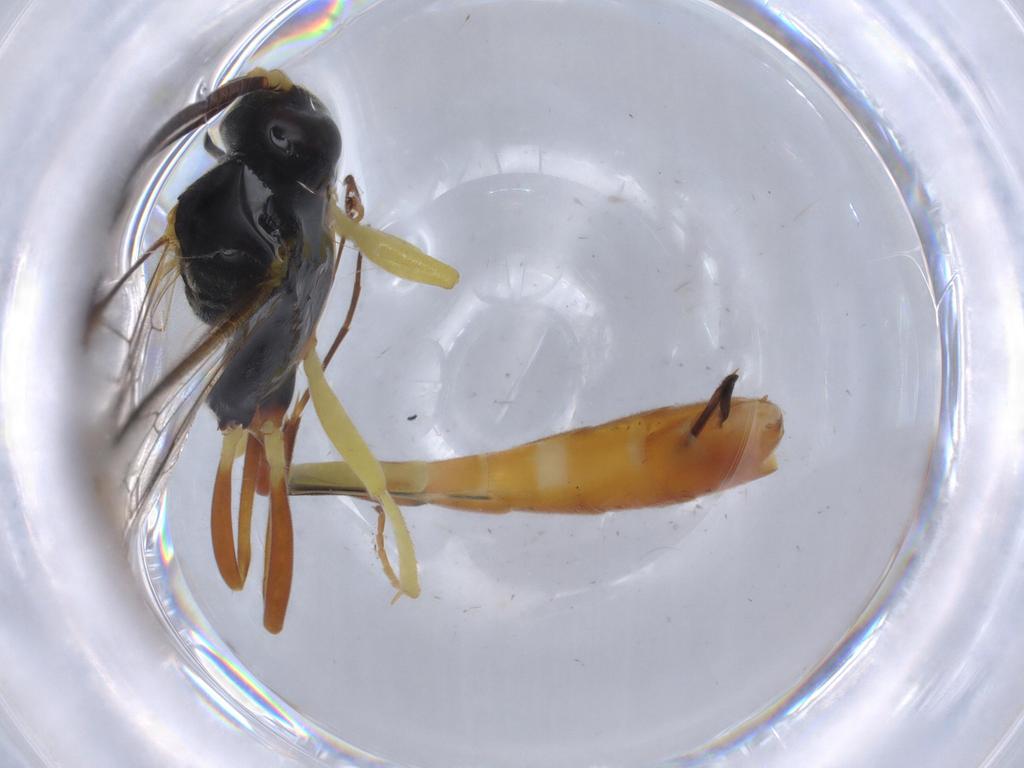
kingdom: Animalia
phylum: Arthropoda
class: Insecta
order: Hymenoptera
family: Ichneumonidae
